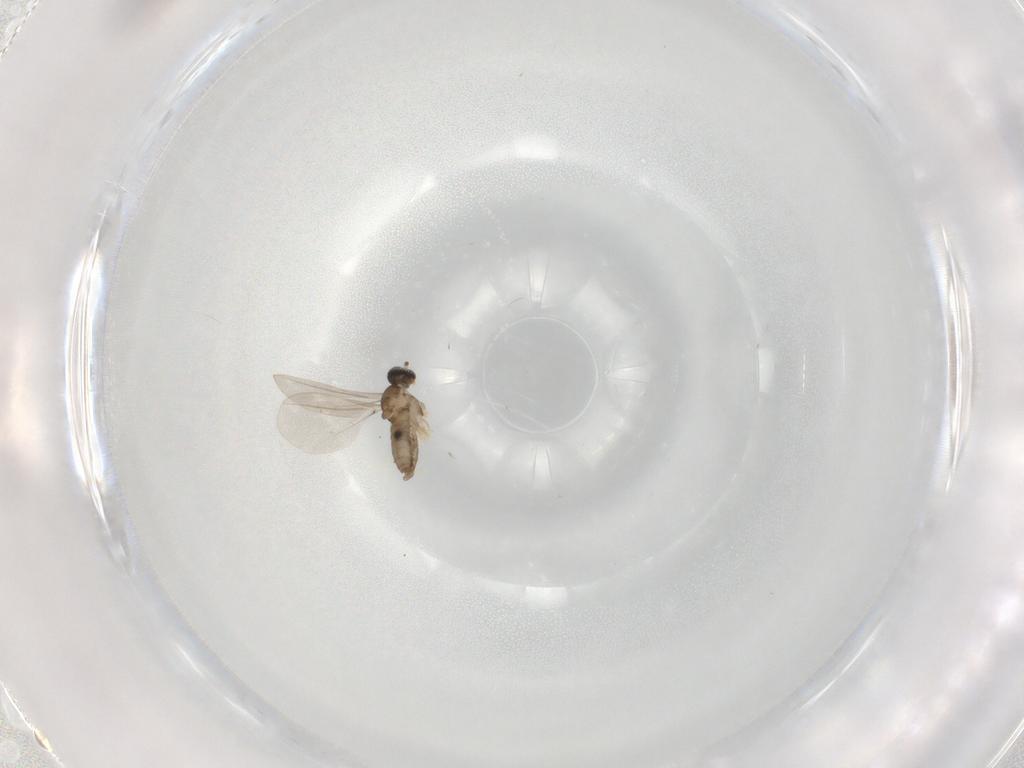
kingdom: Animalia
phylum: Arthropoda
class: Insecta
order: Diptera
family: Cecidomyiidae
